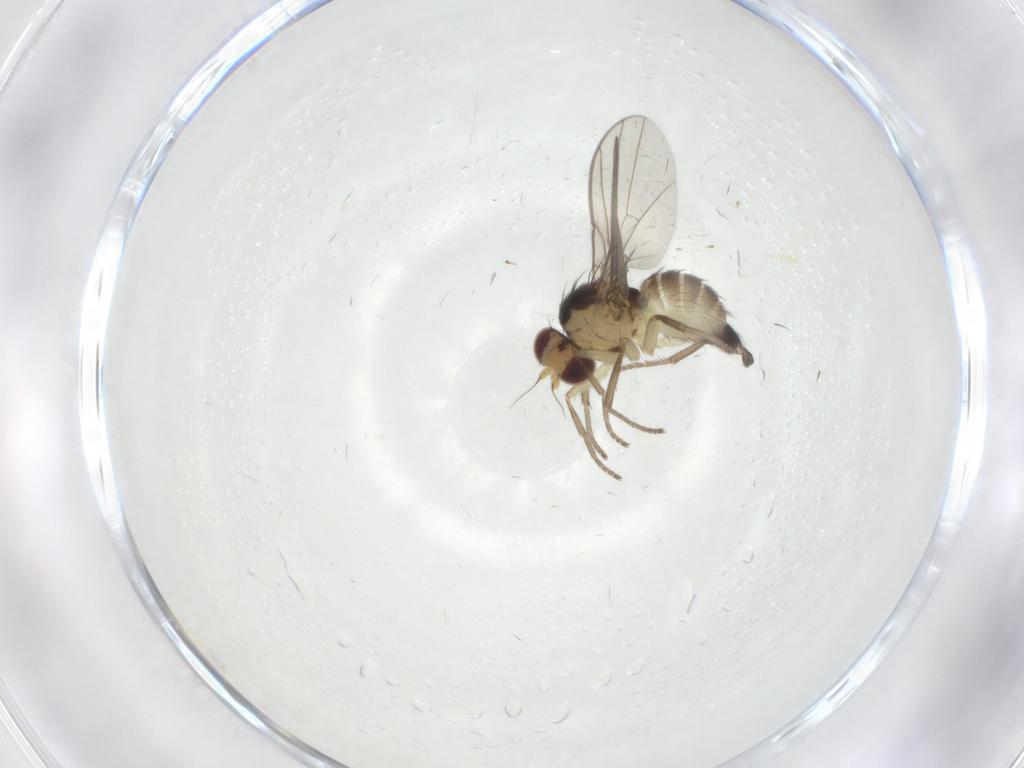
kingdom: Animalia
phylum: Arthropoda
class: Insecta
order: Diptera
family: Agromyzidae
